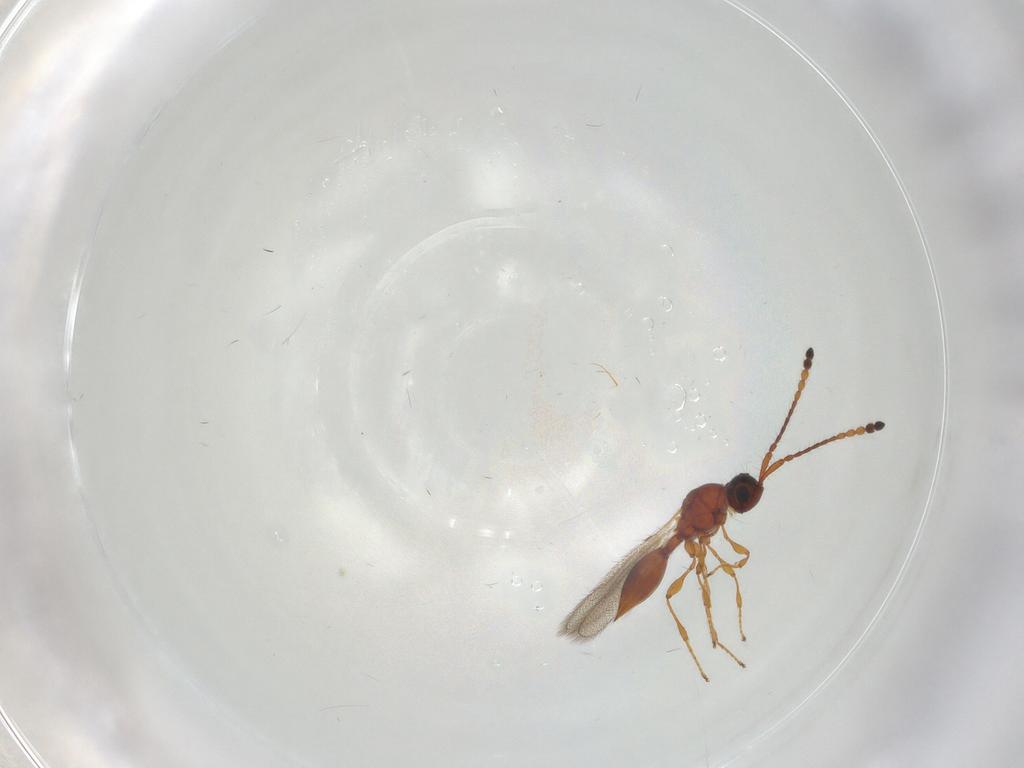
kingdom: Animalia
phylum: Arthropoda
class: Insecta
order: Hymenoptera
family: Diapriidae
